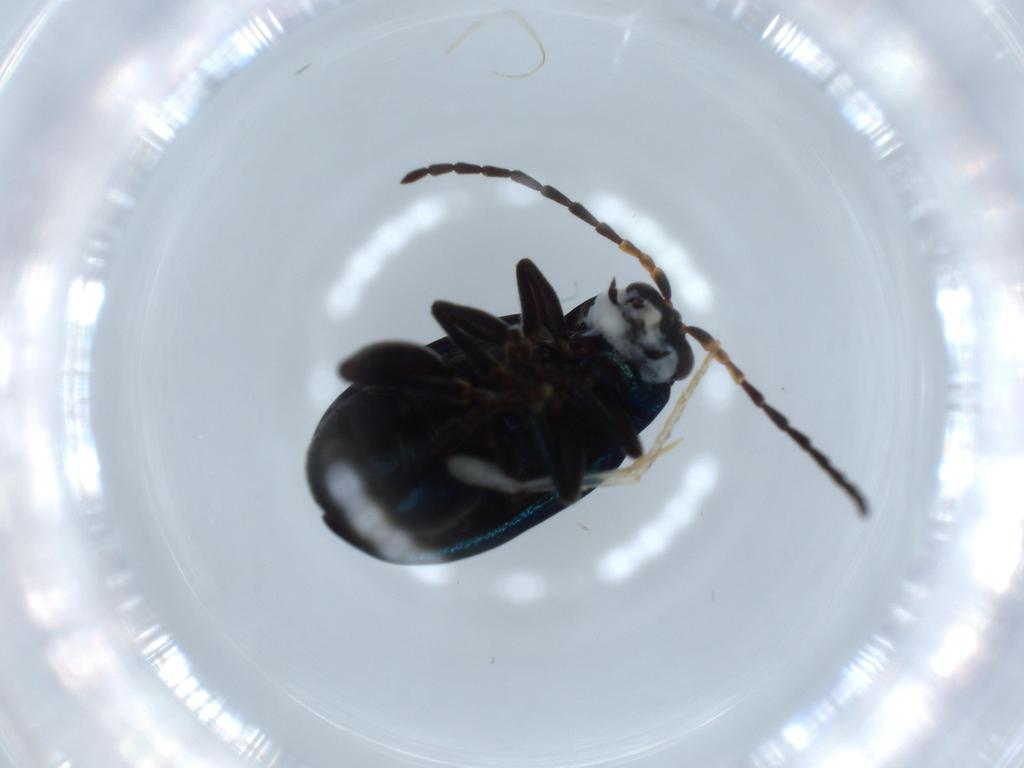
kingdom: Animalia
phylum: Arthropoda
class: Insecta
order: Coleoptera
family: Chrysomelidae
